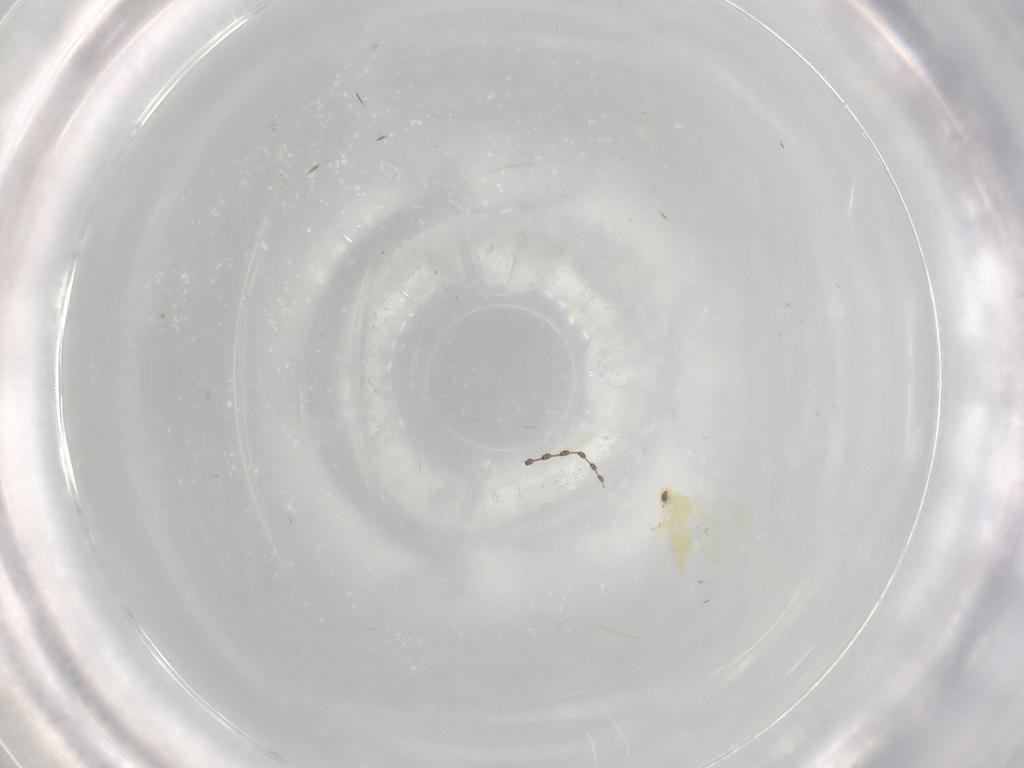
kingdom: Animalia
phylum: Arthropoda
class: Insecta
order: Hemiptera
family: Aleyrodidae
